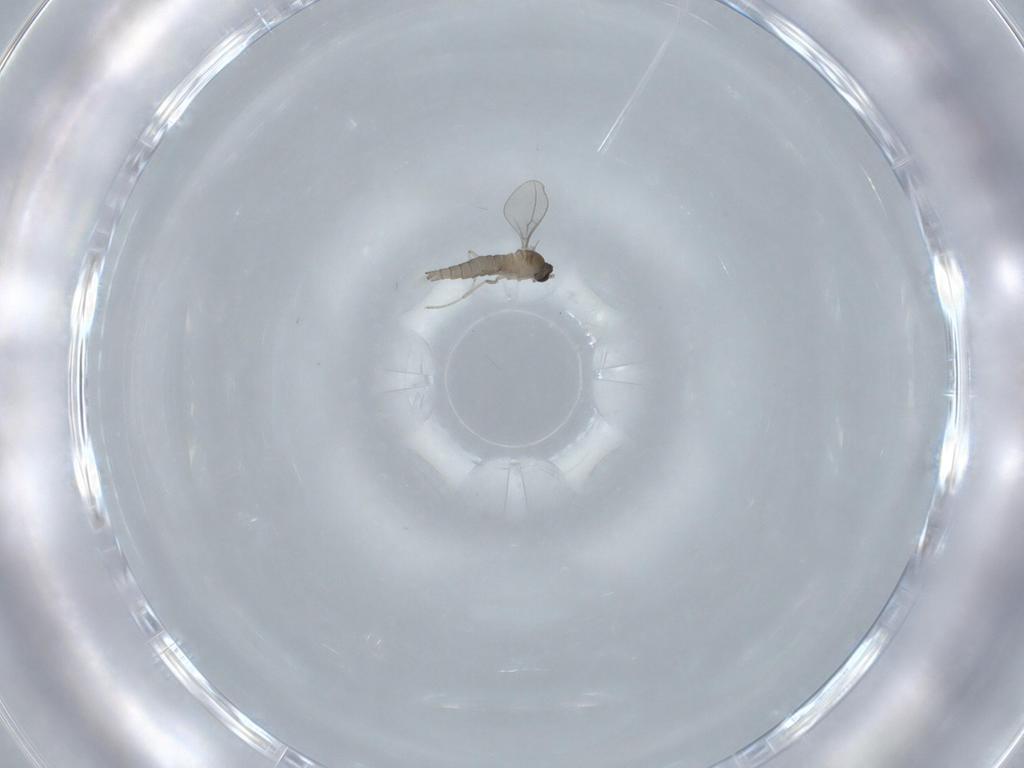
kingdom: Animalia
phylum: Arthropoda
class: Insecta
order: Diptera
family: Cecidomyiidae
